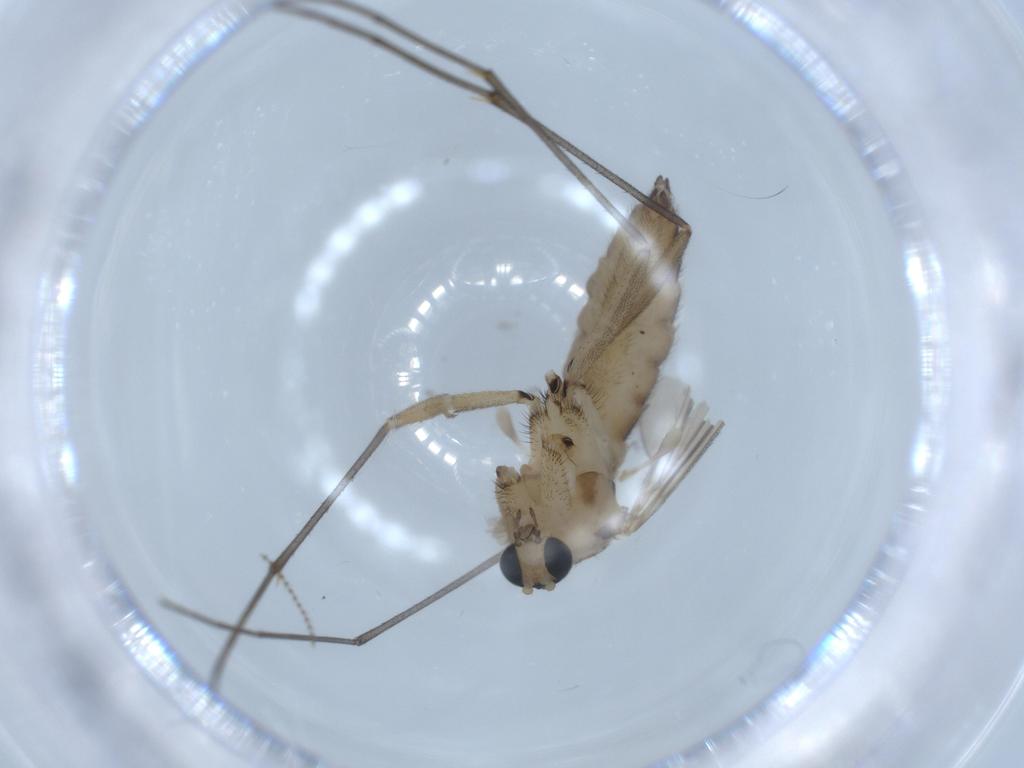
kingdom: Animalia
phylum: Arthropoda
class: Insecta
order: Diptera
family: Sciaridae
